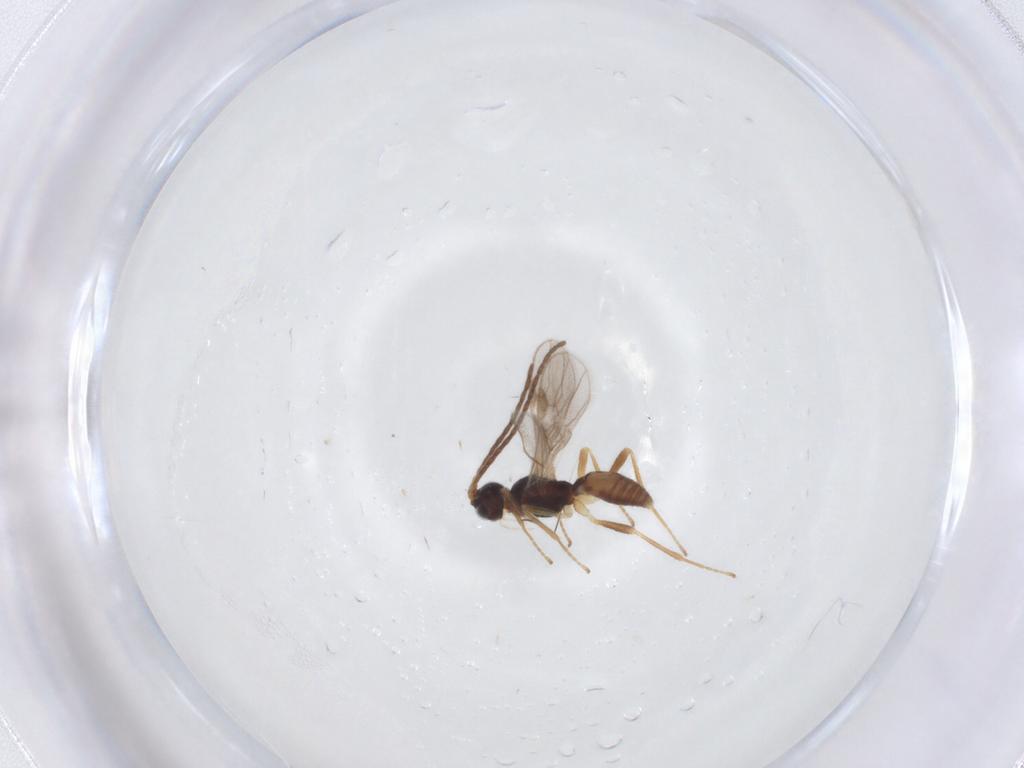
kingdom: Animalia
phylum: Arthropoda
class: Insecta
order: Hymenoptera
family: Braconidae
